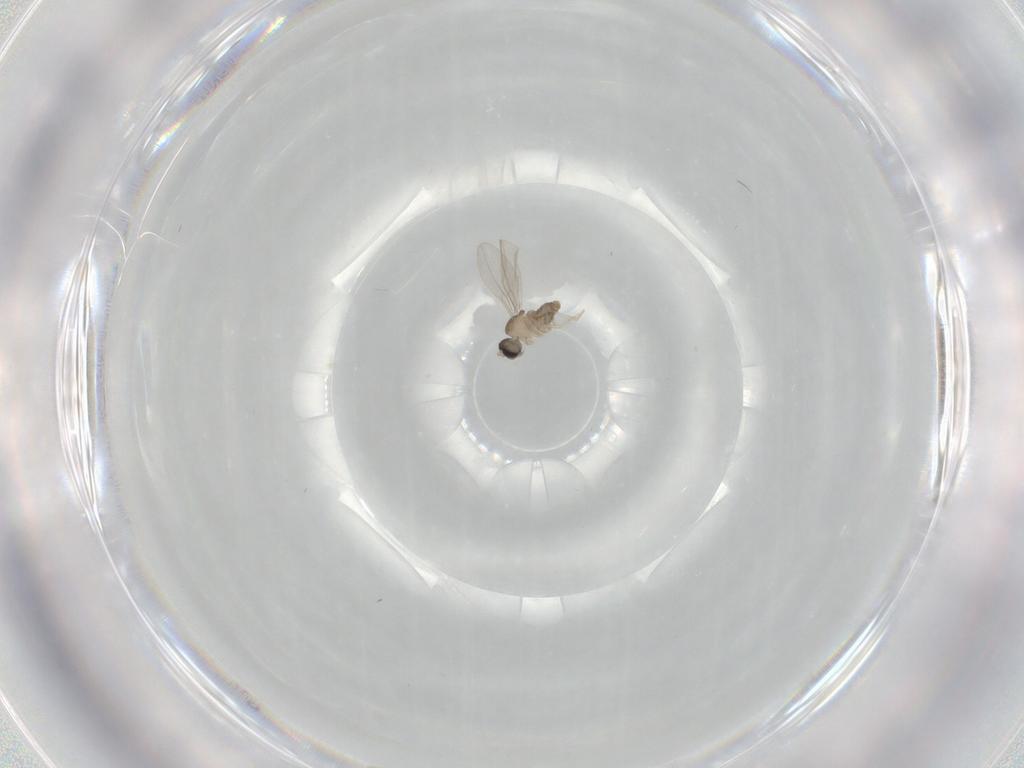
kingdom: Animalia
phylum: Arthropoda
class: Insecta
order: Diptera
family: Cecidomyiidae
